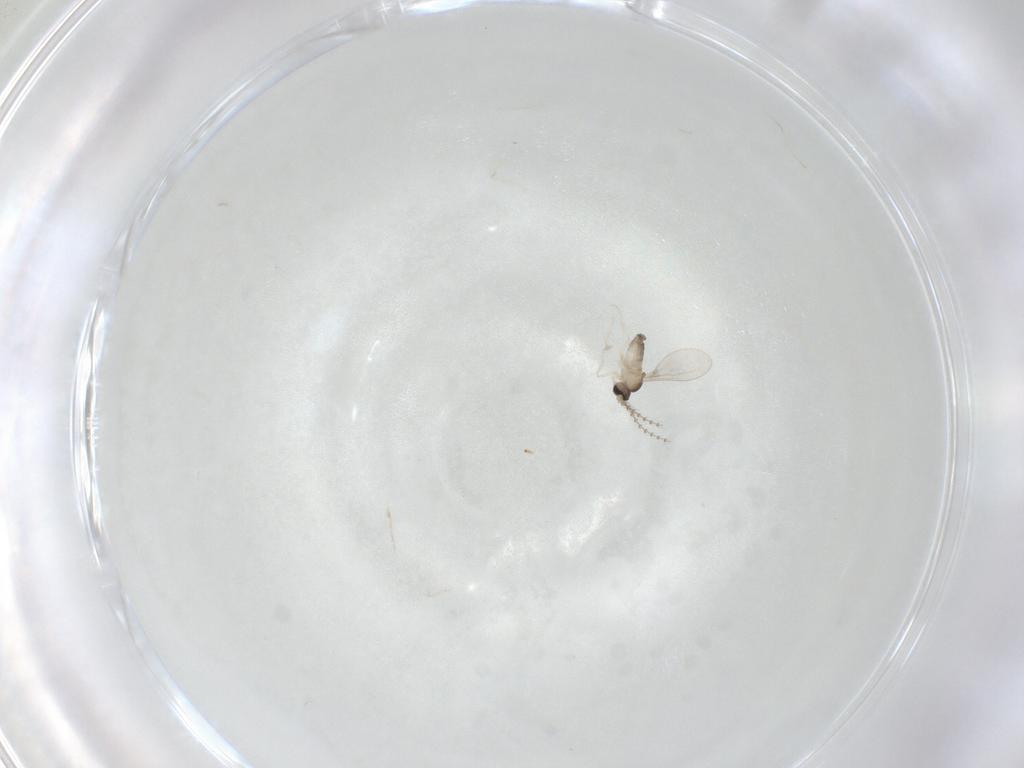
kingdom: Animalia
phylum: Arthropoda
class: Insecta
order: Diptera
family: Cecidomyiidae
